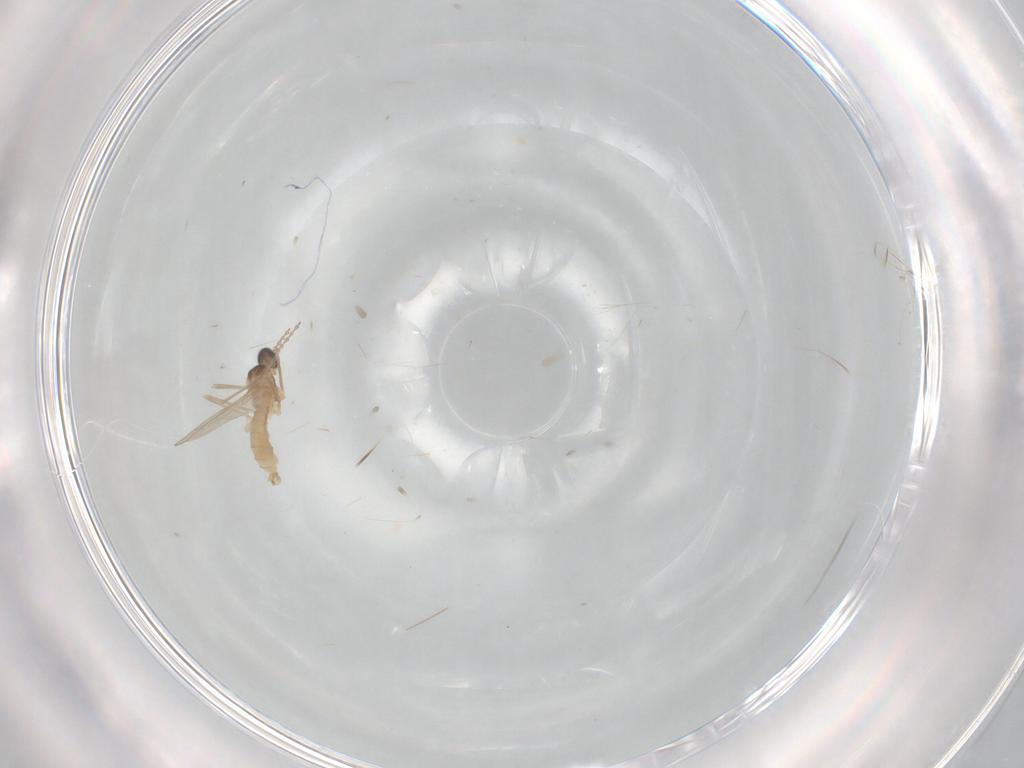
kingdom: Animalia
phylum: Arthropoda
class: Insecta
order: Diptera
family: Cecidomyiidae
